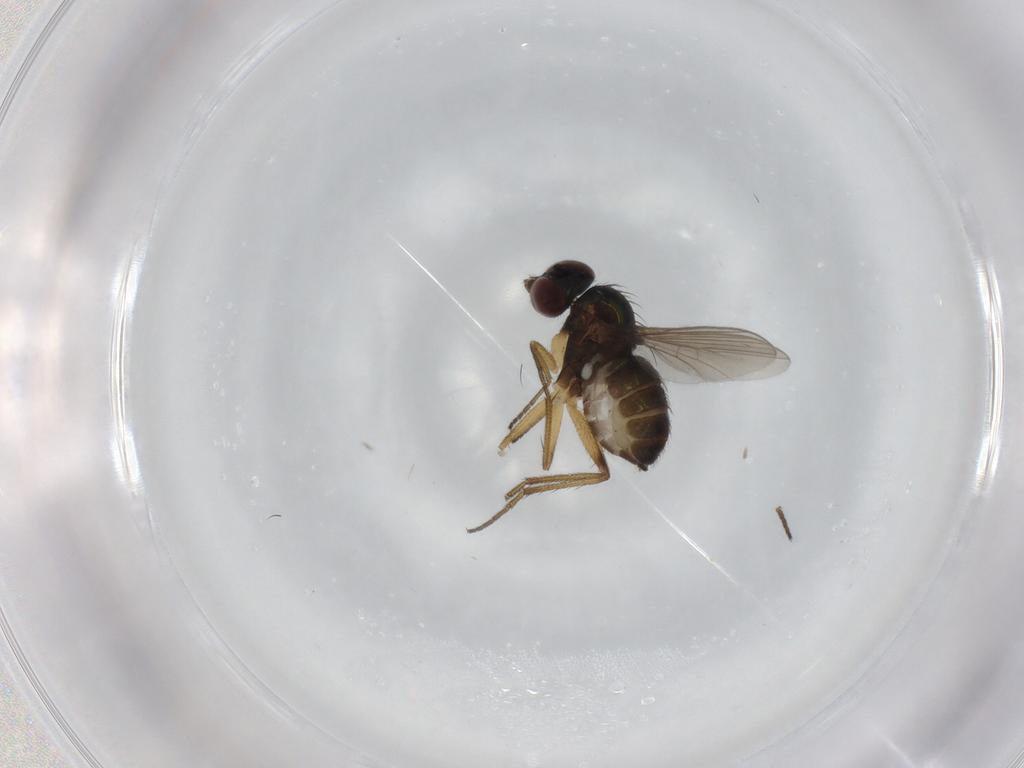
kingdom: Animalia
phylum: Arthropoda
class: Insecta
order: Diptera
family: Dolichopodidae
